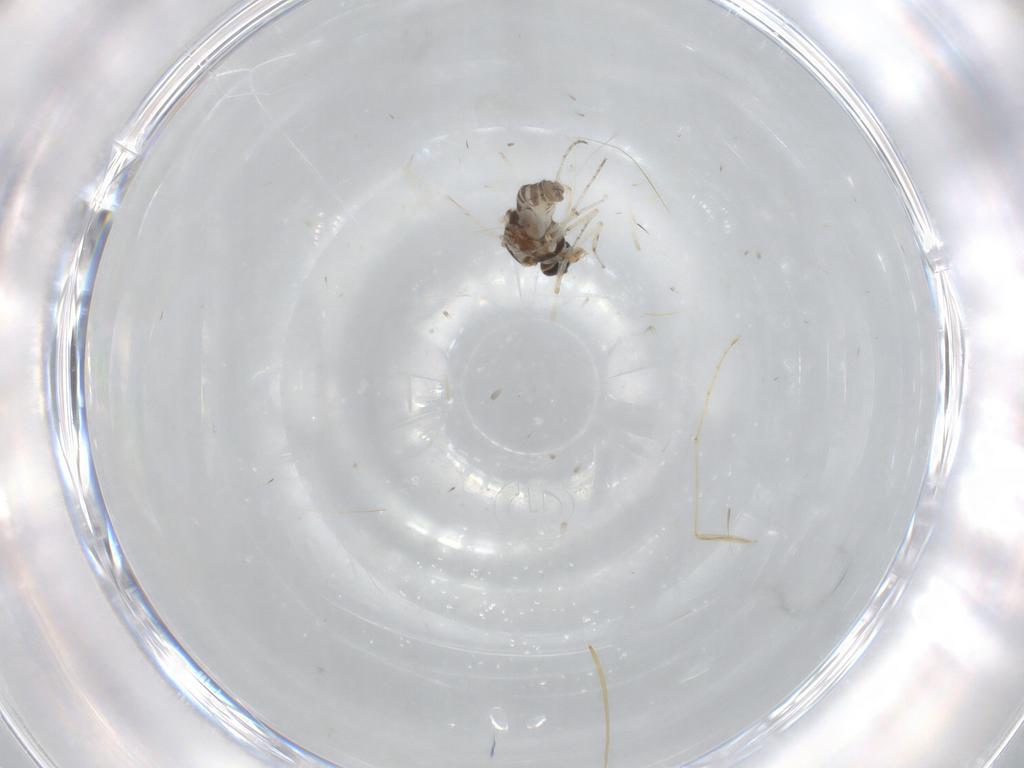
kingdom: Animalia
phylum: Arthropoda
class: Insecta
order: Diptera
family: Ceratopogonidae
